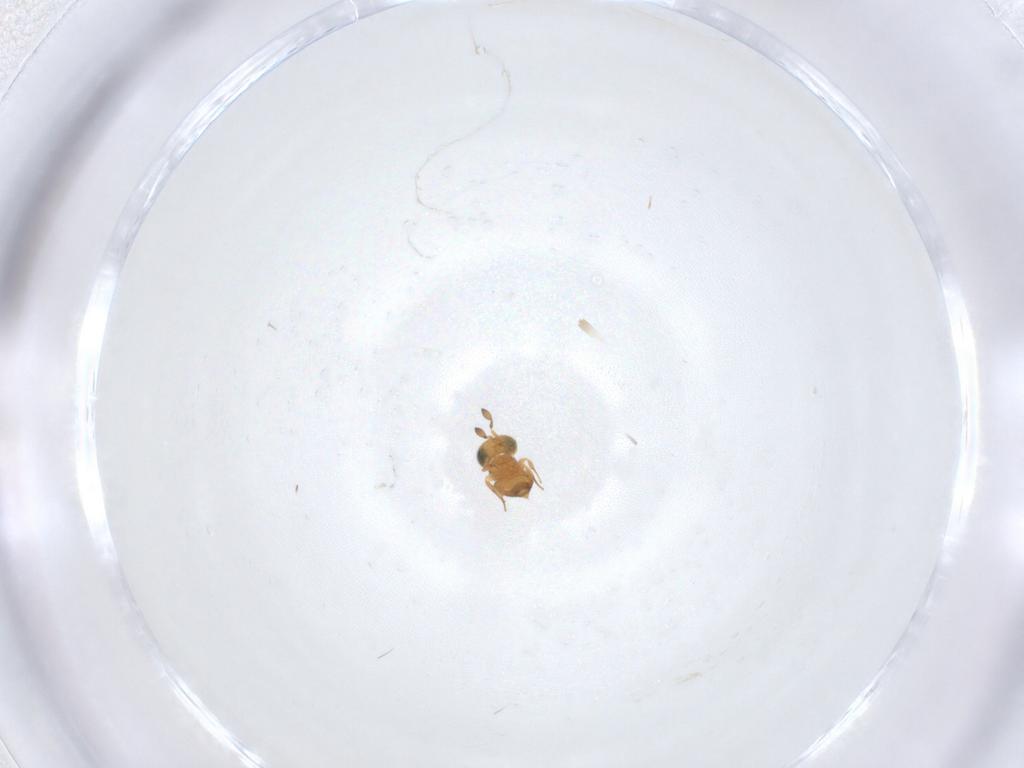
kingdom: Animalia
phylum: Arthropoda
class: Insecta
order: Hymenoptera
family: Scelionidae
